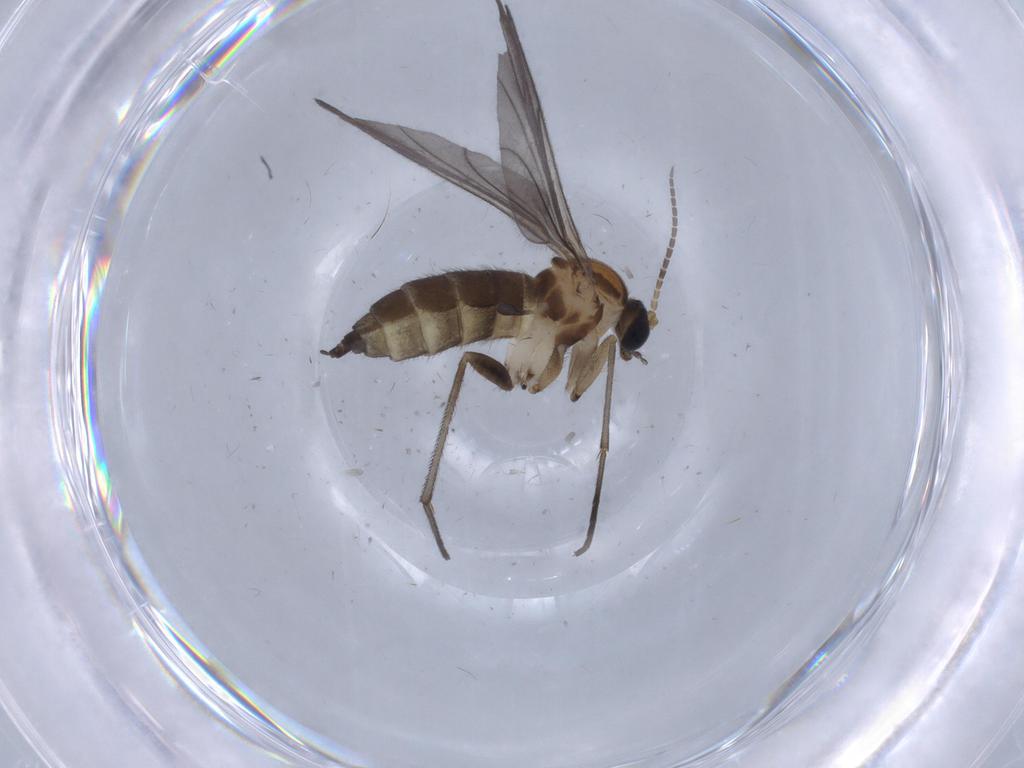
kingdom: Animalia
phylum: Arthropoda
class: Insecta
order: Diptera
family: Sciaridae
